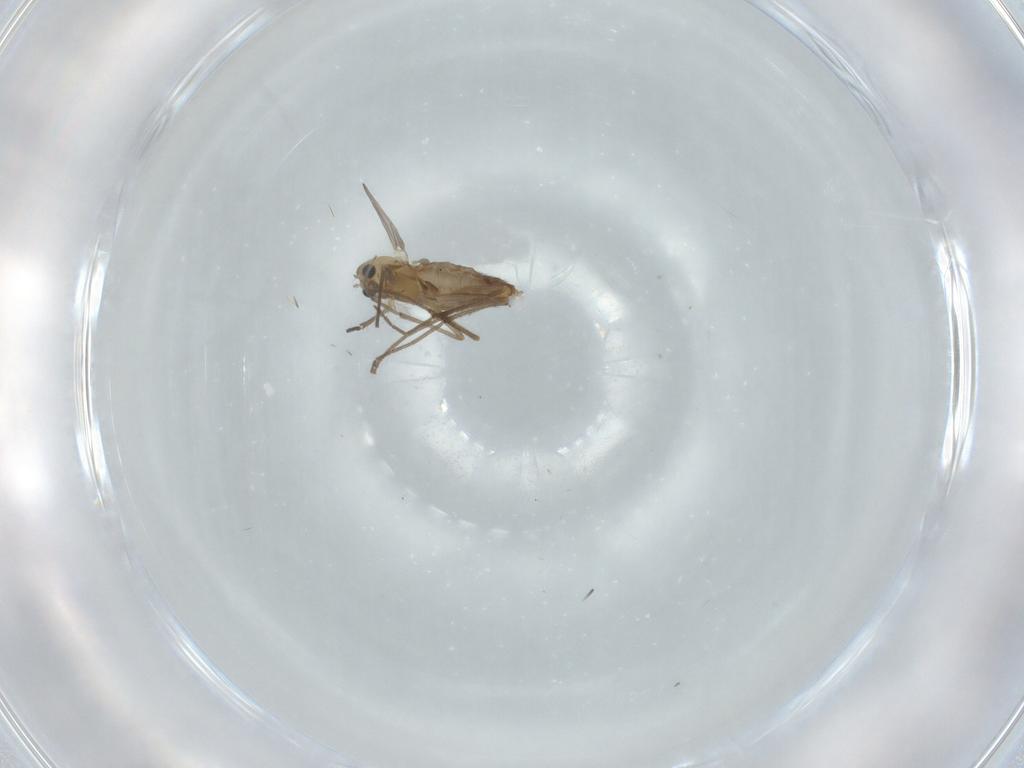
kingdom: Animalia
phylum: Arthropoda
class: Insecta
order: Diptera
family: Chironomidae
